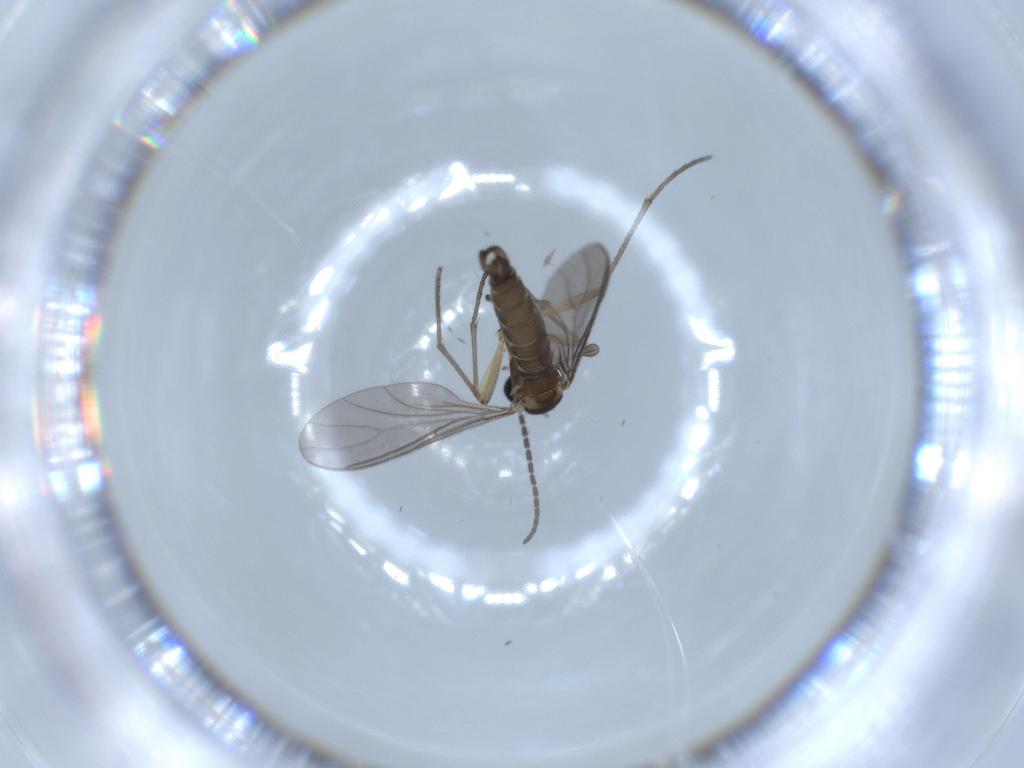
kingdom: Animalia
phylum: Arthropoda
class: Insecta
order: Diptera
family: Sciaridae
